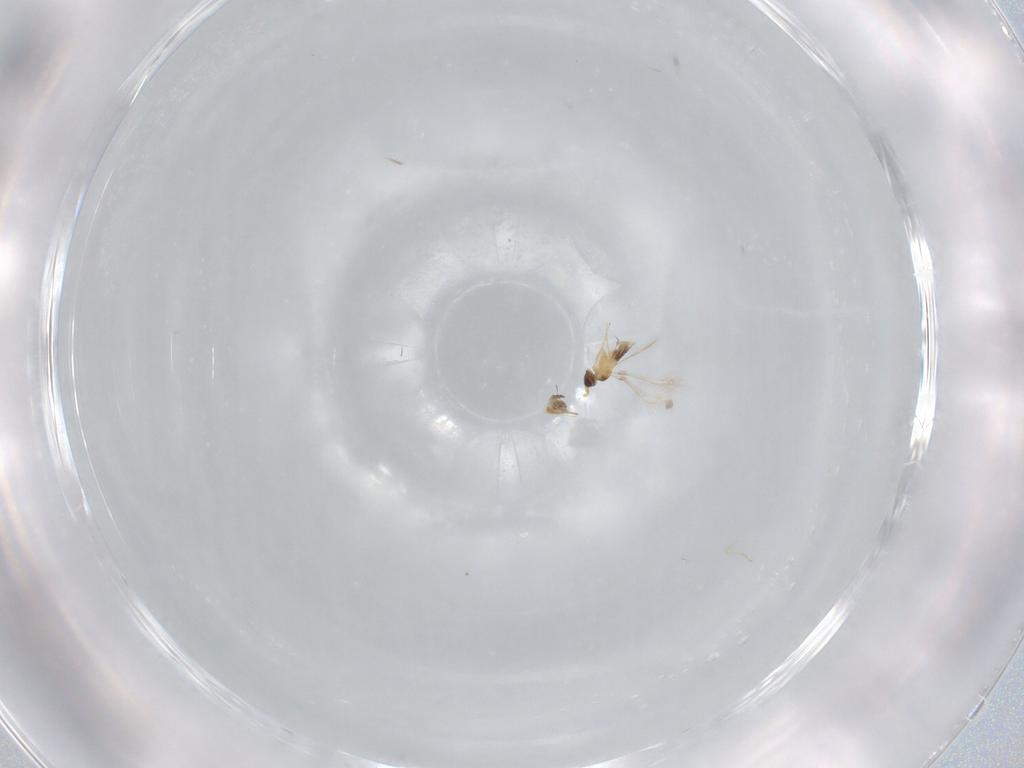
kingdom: Animalia
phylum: Arthropoda
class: Insecta
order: Hymenoptera
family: Mymaridae
